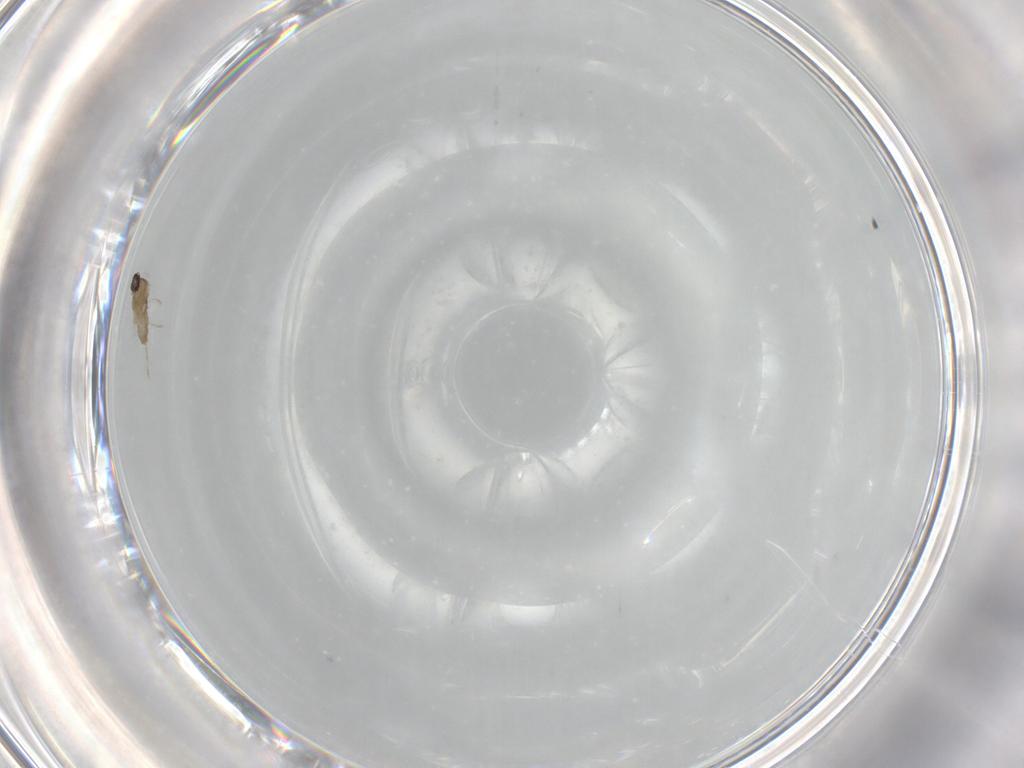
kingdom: Animalia
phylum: Arthropoda
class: Insecta
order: Diptera
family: Cecidomyiidae
